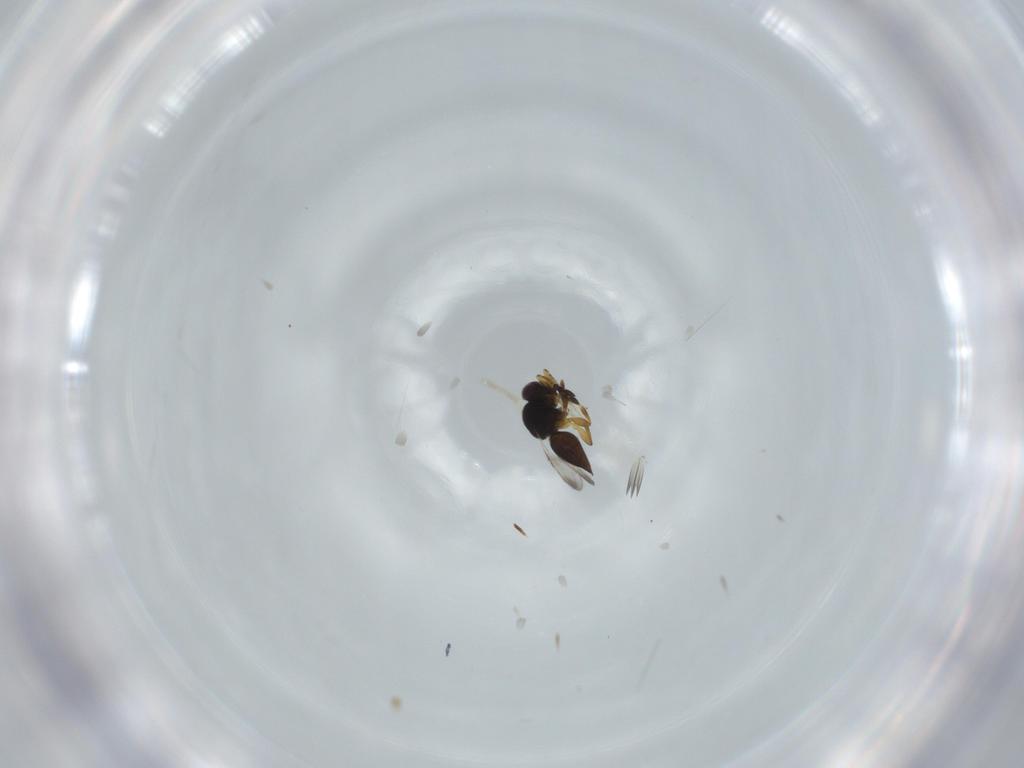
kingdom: Animalia
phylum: Arthropoda
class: Insecta
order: Hymenoptera
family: Ceraphronidae
